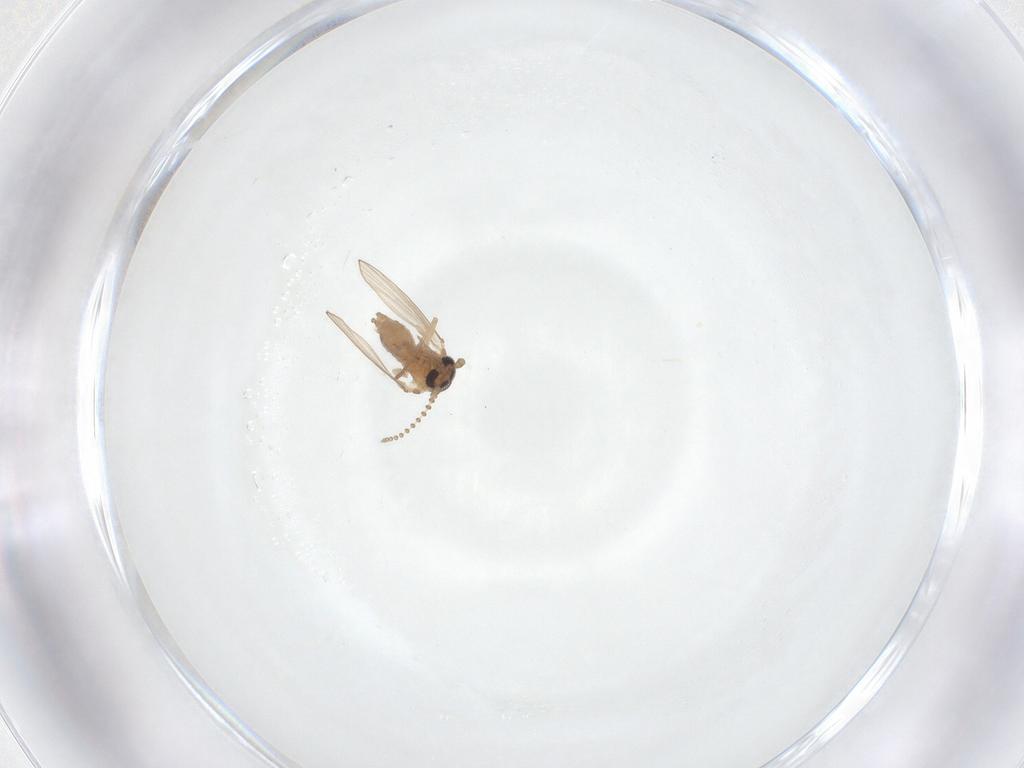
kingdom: Animalia
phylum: Arthropoda
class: Insecta
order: Diptera
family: Psychodidae
